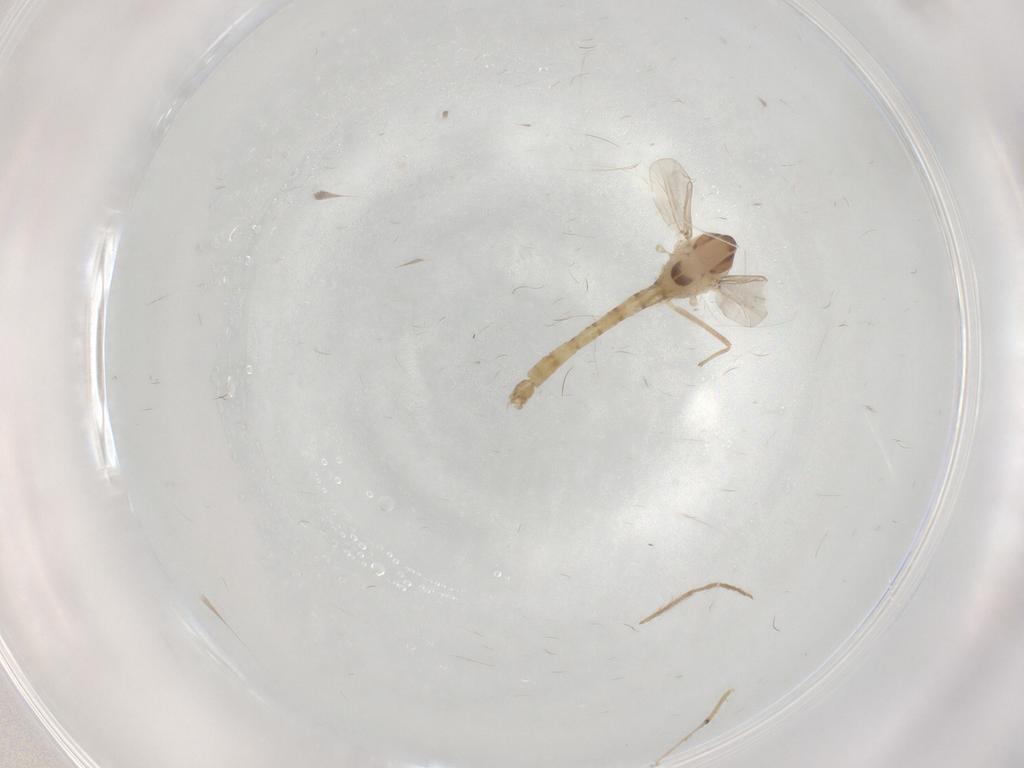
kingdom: Animalia
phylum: Arthropoda
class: Insecta
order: Diptera
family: Chironomidae
